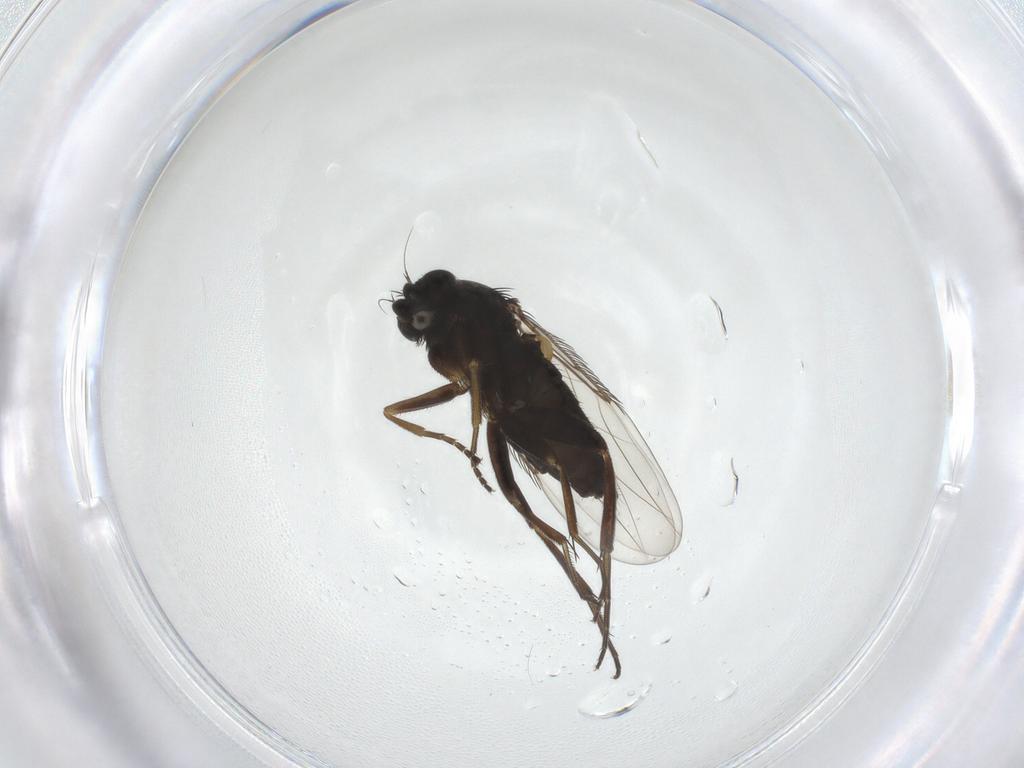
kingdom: Animalia
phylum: Arthropoda
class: Insecta
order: Diptera
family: Phoridae
